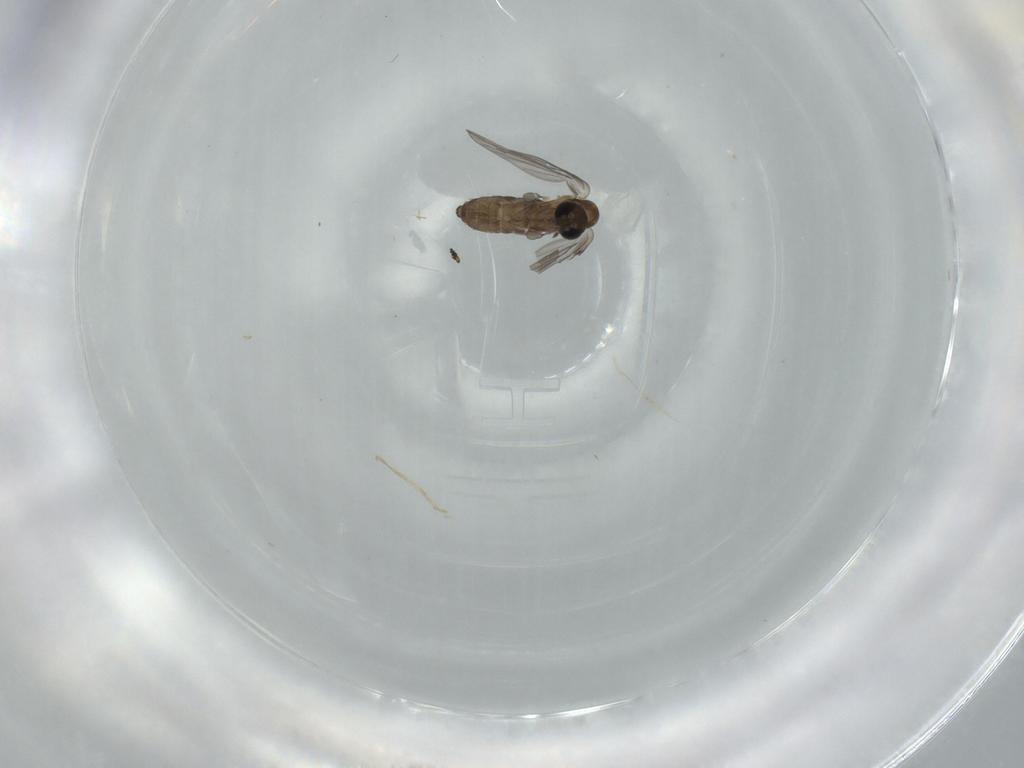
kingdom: Animalia
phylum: Arthropoda
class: Insecta
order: Diptera
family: Psychodidae
